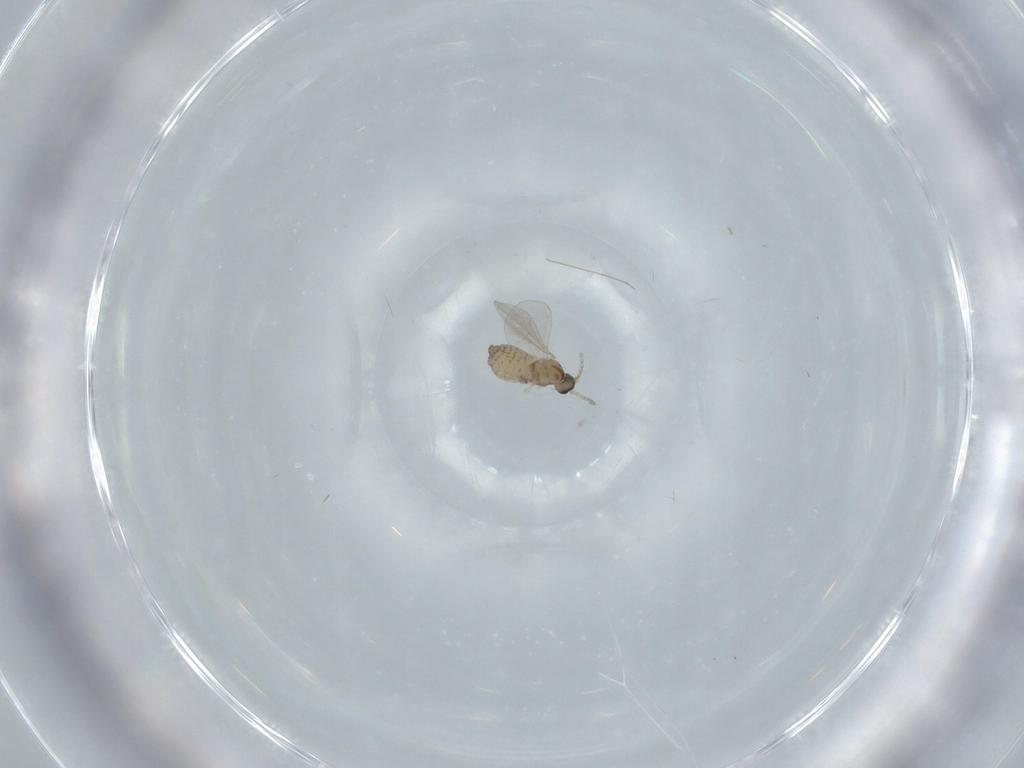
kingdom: Animalia
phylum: Arthropoda
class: Insecta
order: Diptera
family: Cecidomyiidae
